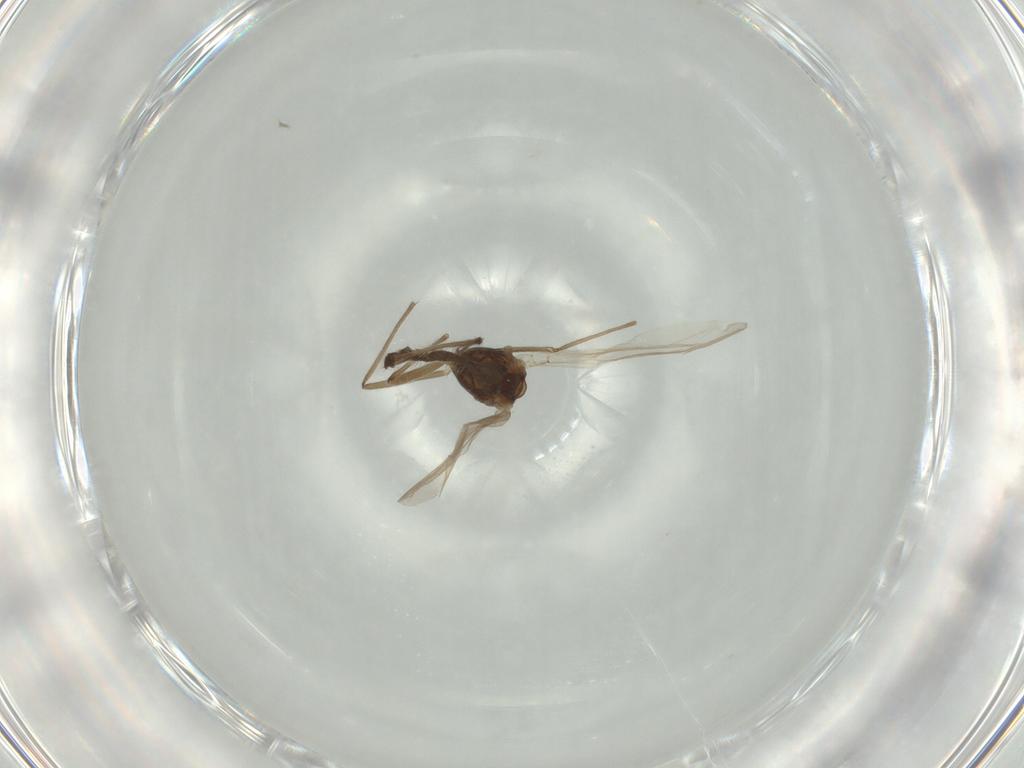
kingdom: Animalia
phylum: Arthropoda
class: Insecta
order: Diptera
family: Chironomidae
